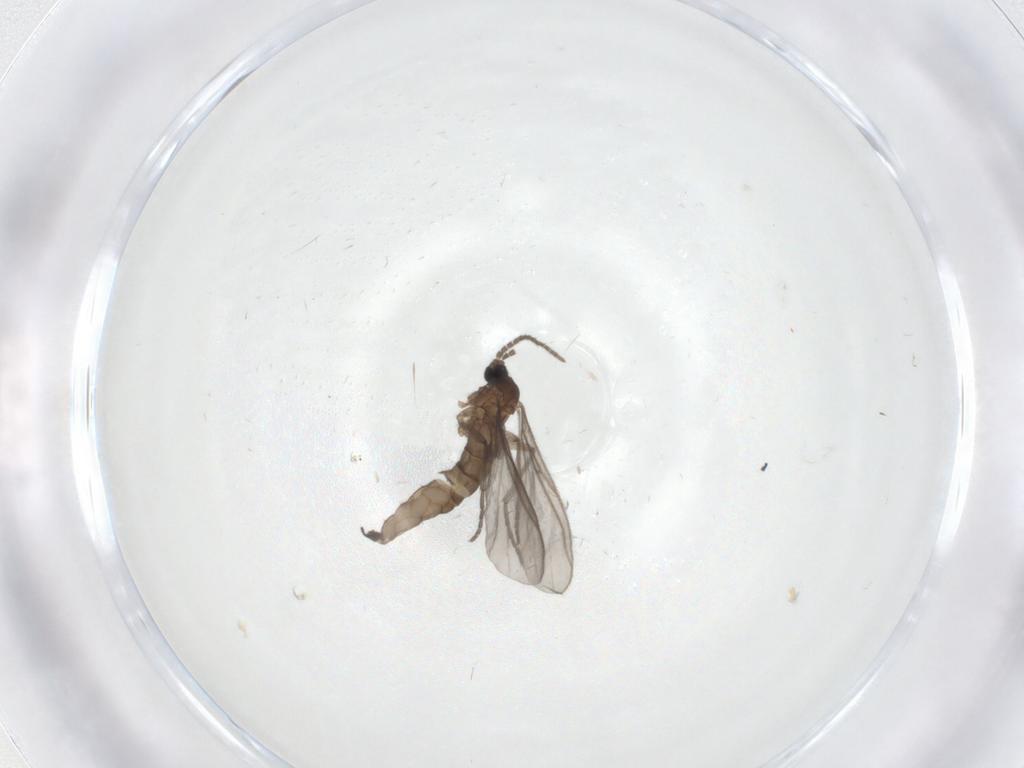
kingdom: Animalia
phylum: Arthropoda
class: Insecta
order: Diptera
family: Sciaridae
